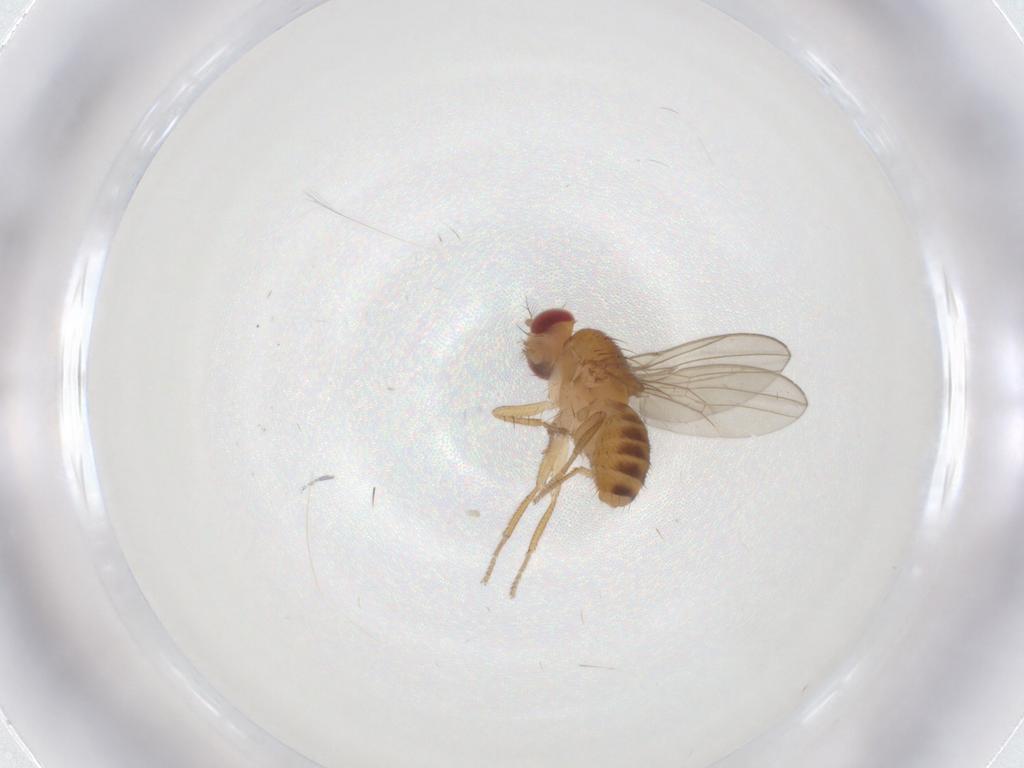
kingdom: Animalia
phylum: Arthropoda
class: Insecta
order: Diptera
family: Drosophilidae
